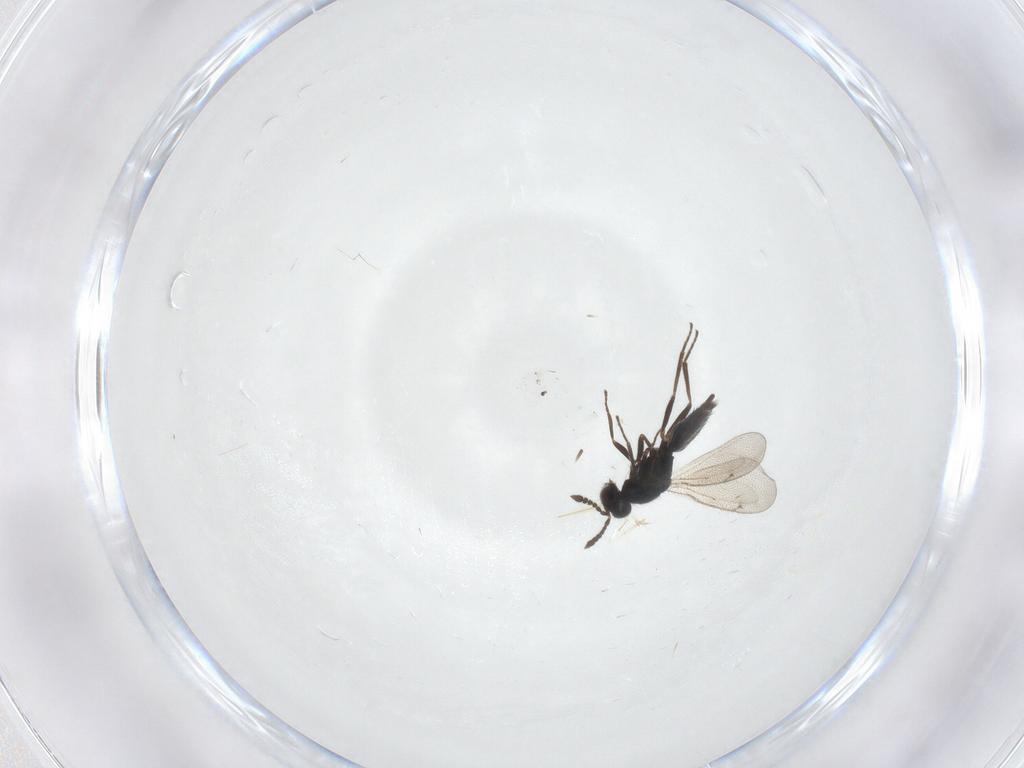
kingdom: Animalia
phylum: Arthropoda
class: Insecta
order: Hymenoptera
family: Eulophidae
